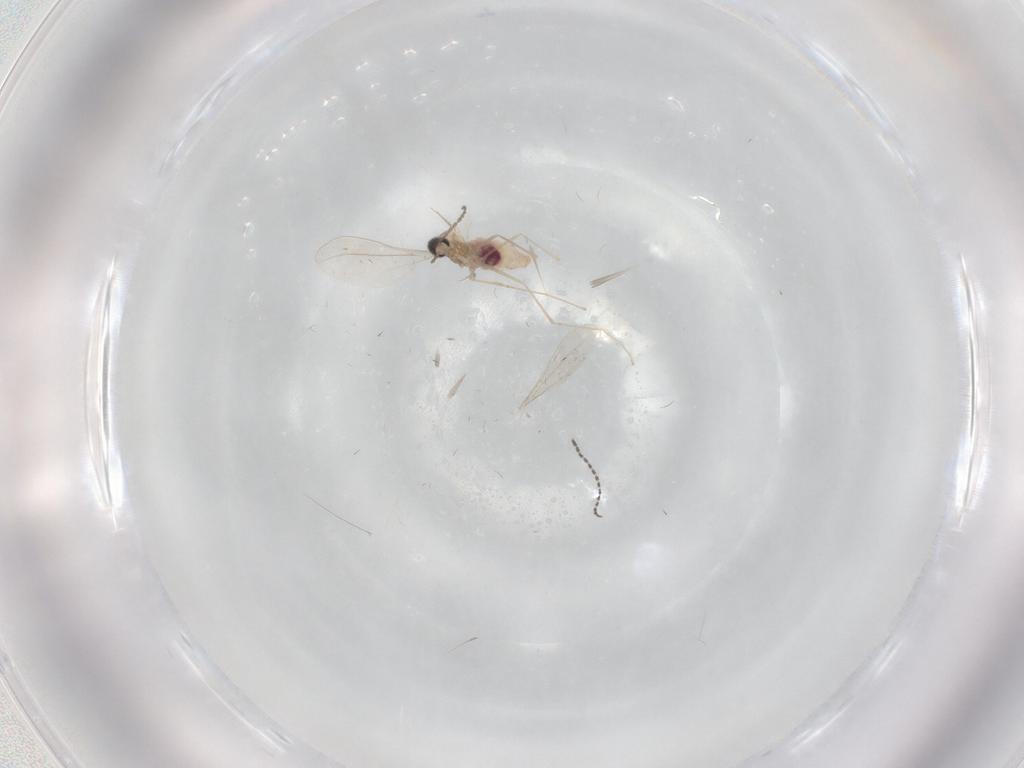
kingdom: Animalia
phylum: Arthropoda
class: Insecta
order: Diptera
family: Cecidomyiidae
